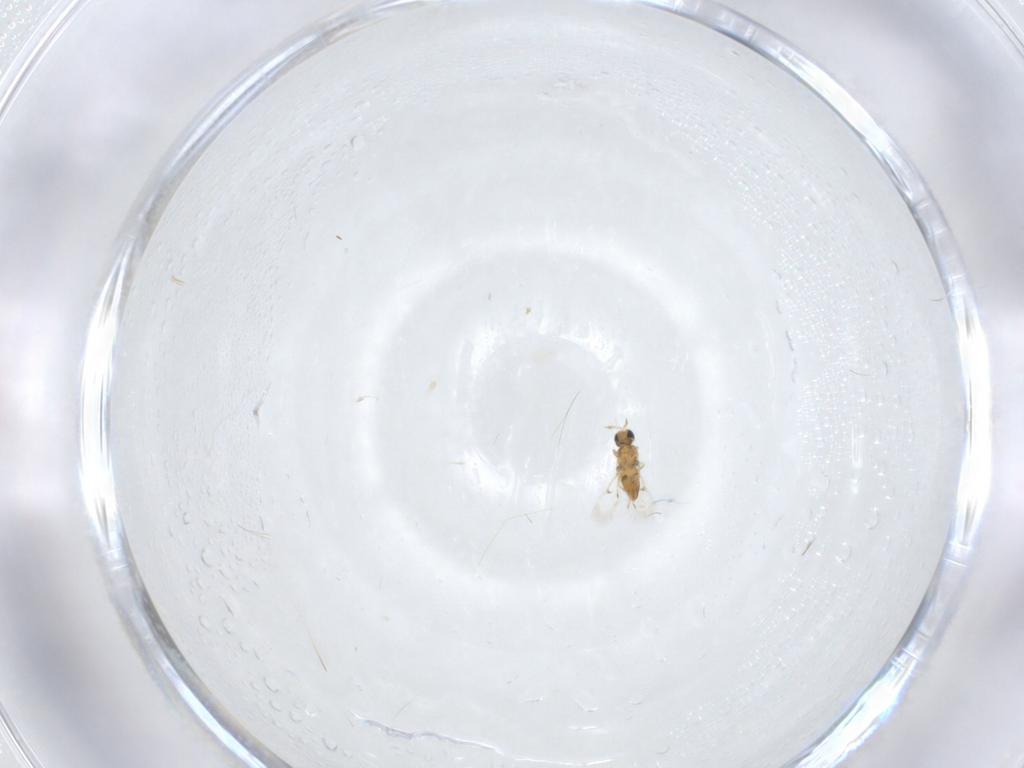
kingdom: Animalia
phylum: Arthropoda
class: Insecta
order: Hymenoptera
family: Trichogrammatidae
